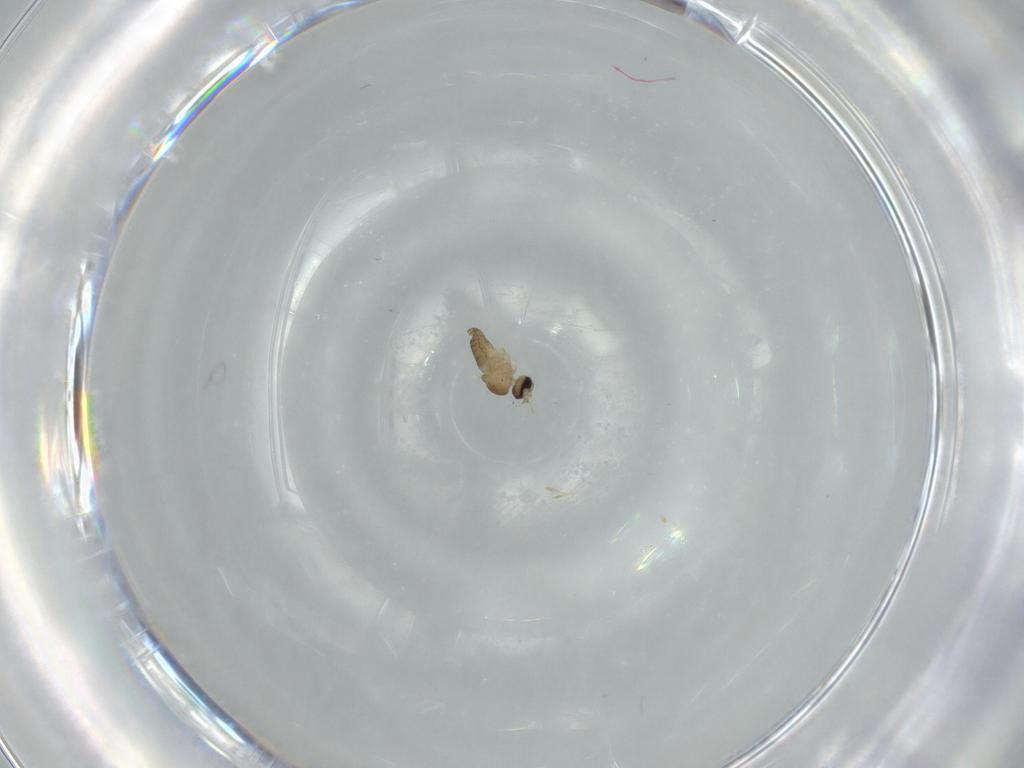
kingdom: Animalia
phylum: Arthropoda
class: Insecta
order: Diptera
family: Cecidomyiidae
